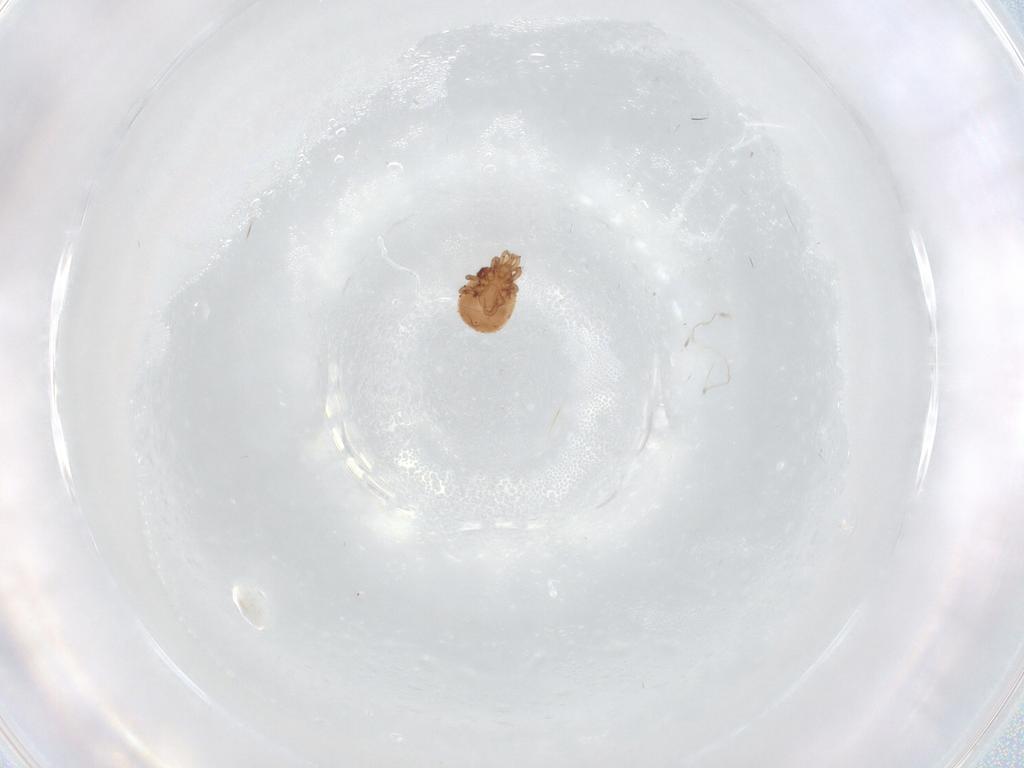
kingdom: Animalia
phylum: Arthropoda
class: Arachnida
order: Mesostigmata
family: Polyaspididae
